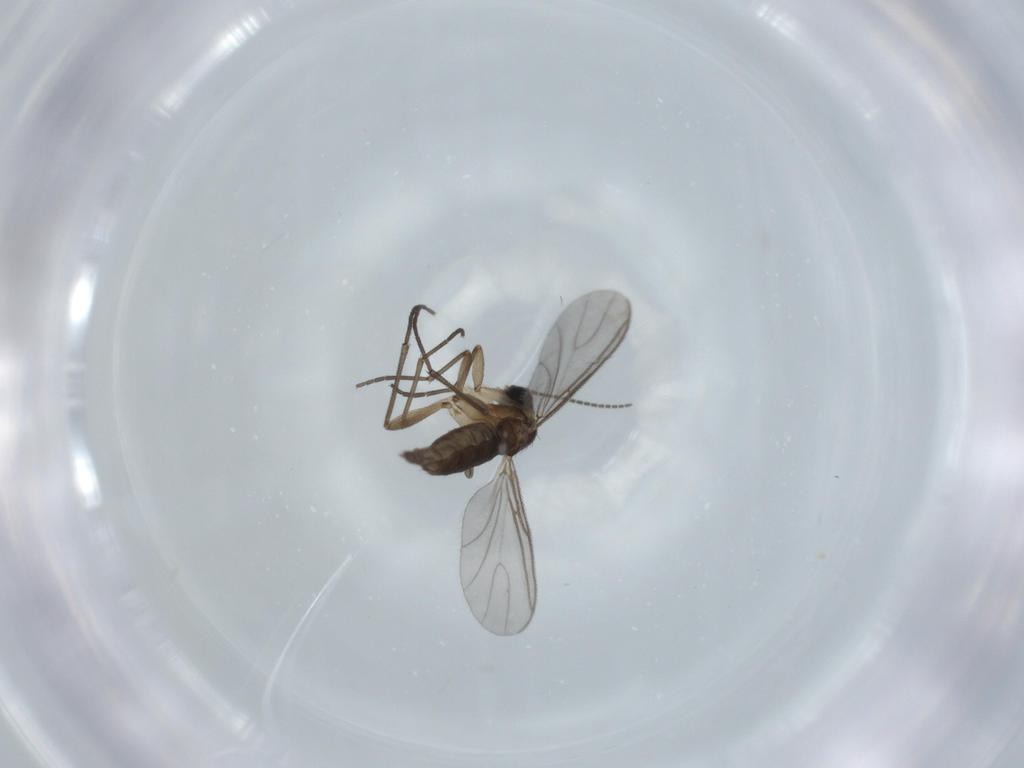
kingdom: Animalia
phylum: Arthropoda
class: Insecta
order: Diptera
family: Sciaridae
